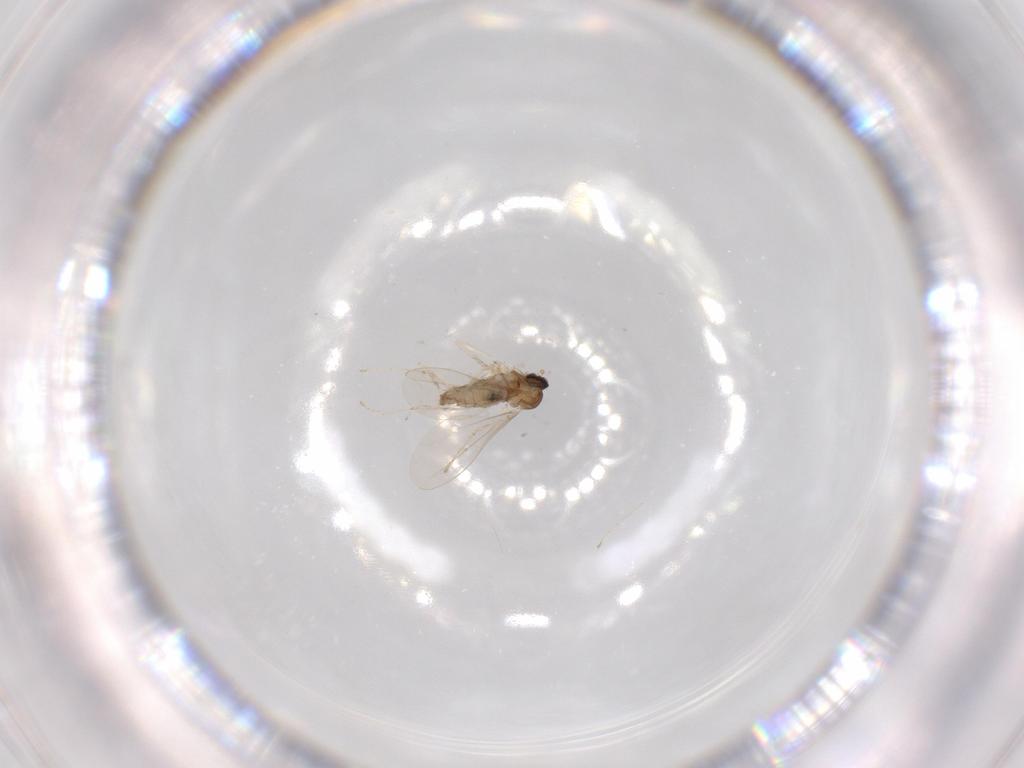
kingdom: Animalia
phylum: Arthropoda
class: Insecta
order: Diptera
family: Cecidomyiidae
